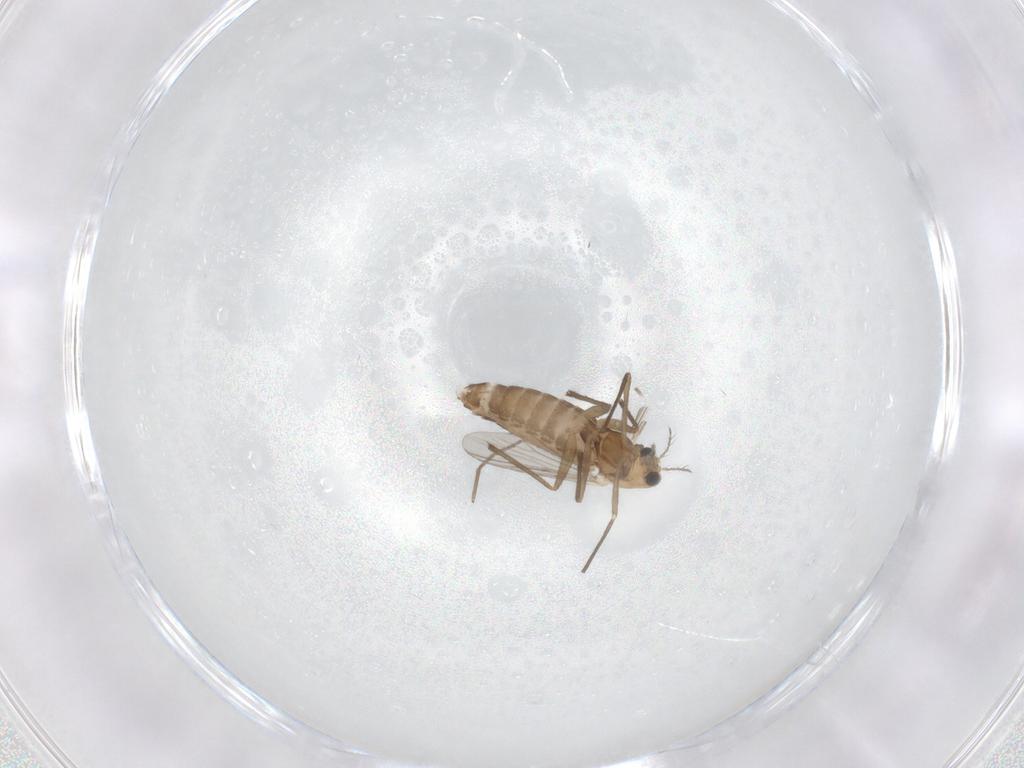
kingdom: Animalia
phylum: Arthropoda
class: Insecta
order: Diptera
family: Chironomidae
